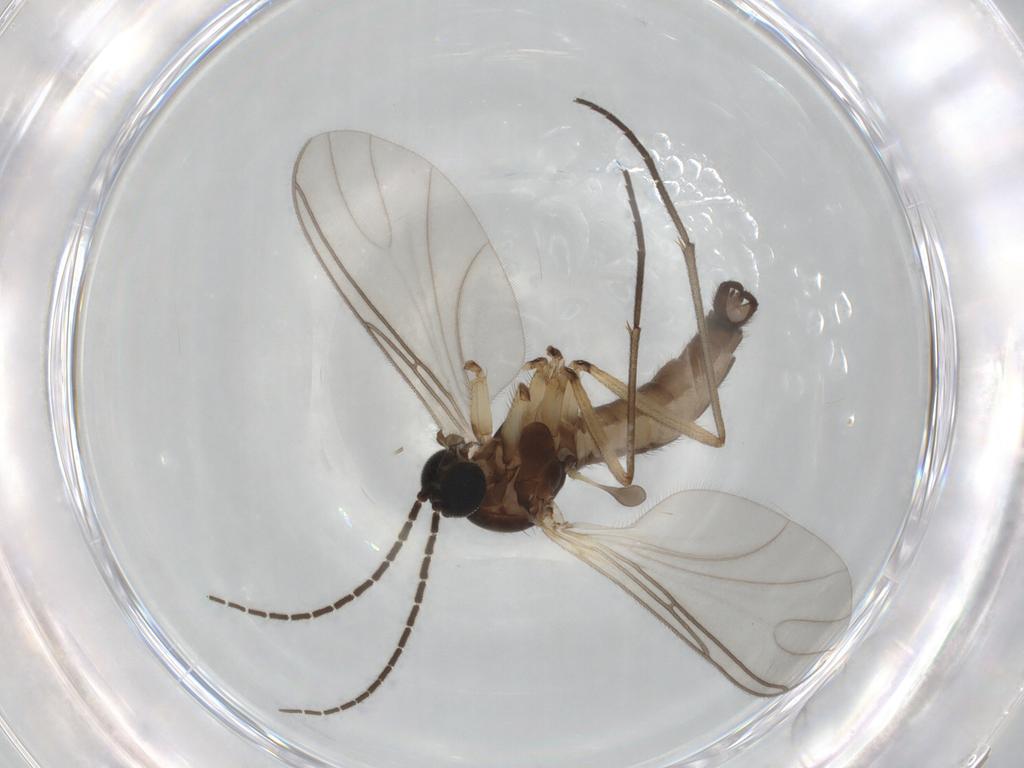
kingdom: Animalia
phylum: Arthropoda
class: Insecta
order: Diptera
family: Sciaridae
